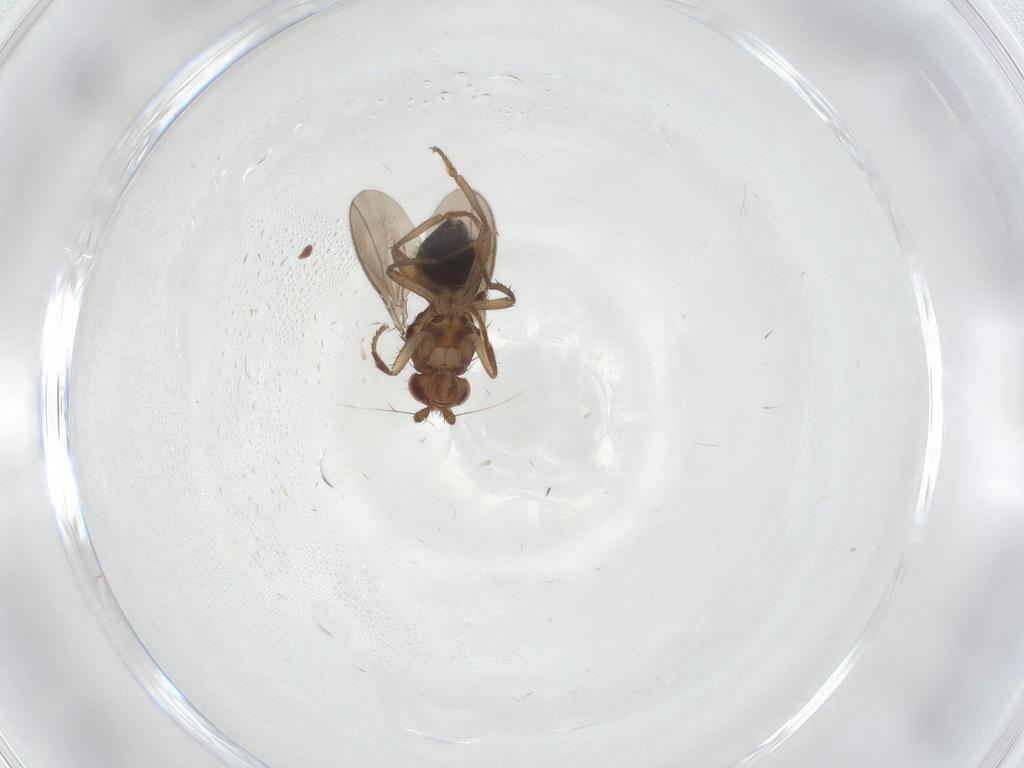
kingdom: Animalia
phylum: Arthropoda
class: Insecta
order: Diptera
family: Sphaeroceridae
